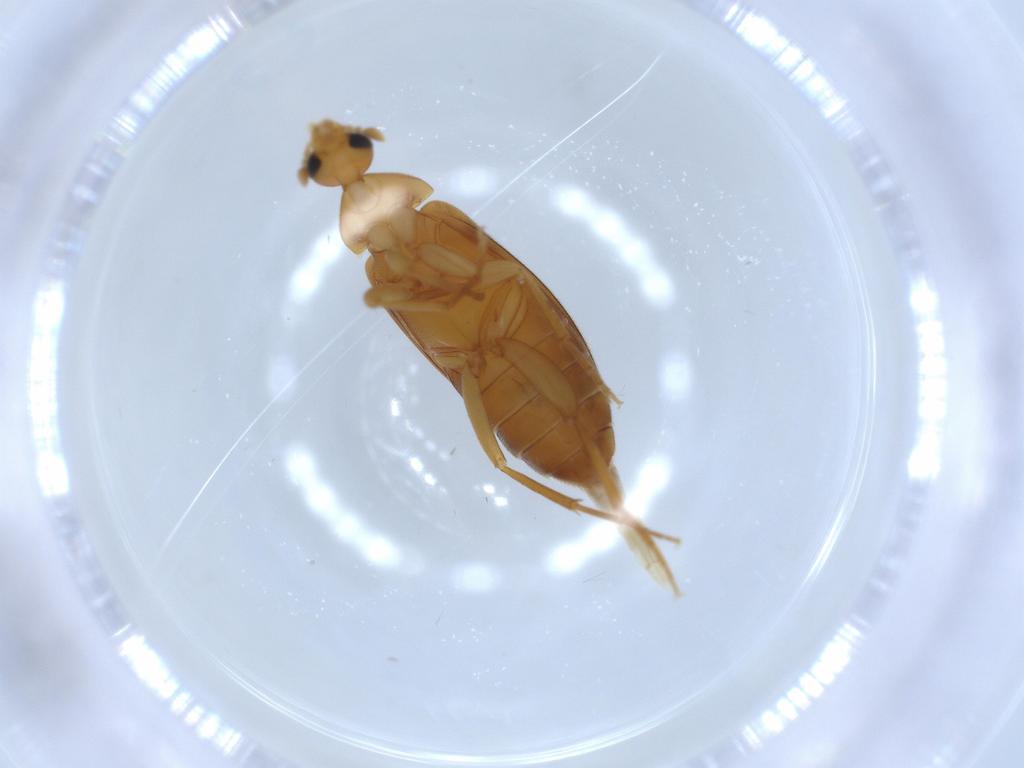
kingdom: Animalia
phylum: Arthropoda
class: Insecta
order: Coleoptera
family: Scraptiidae
